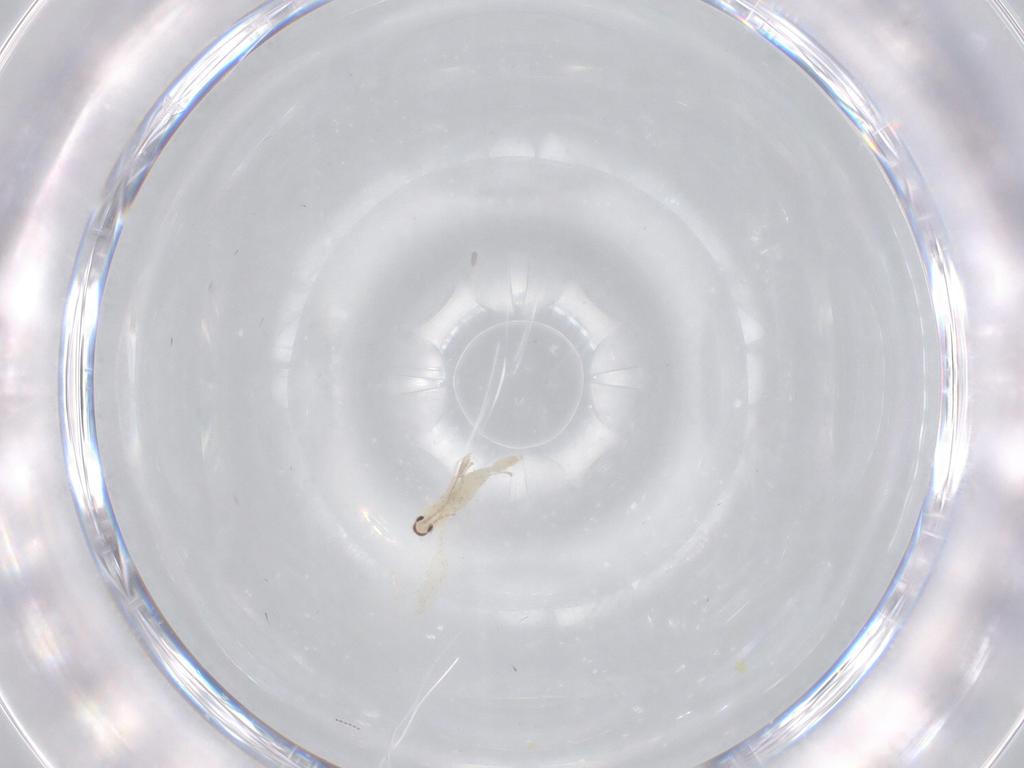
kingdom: Animalia
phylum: Arthropoda
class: Insecta
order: Diptera
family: Cecidomyiidae
